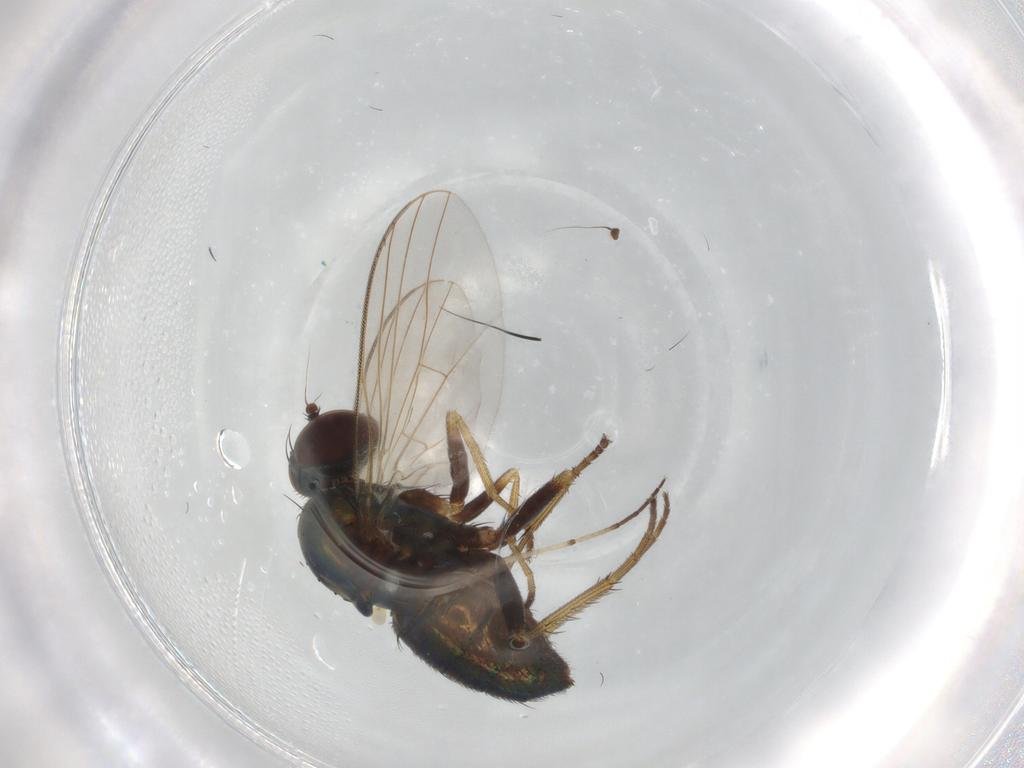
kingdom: Animalia
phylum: Arthropoda
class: Insecta
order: Diptera
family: Dolichopodidae
